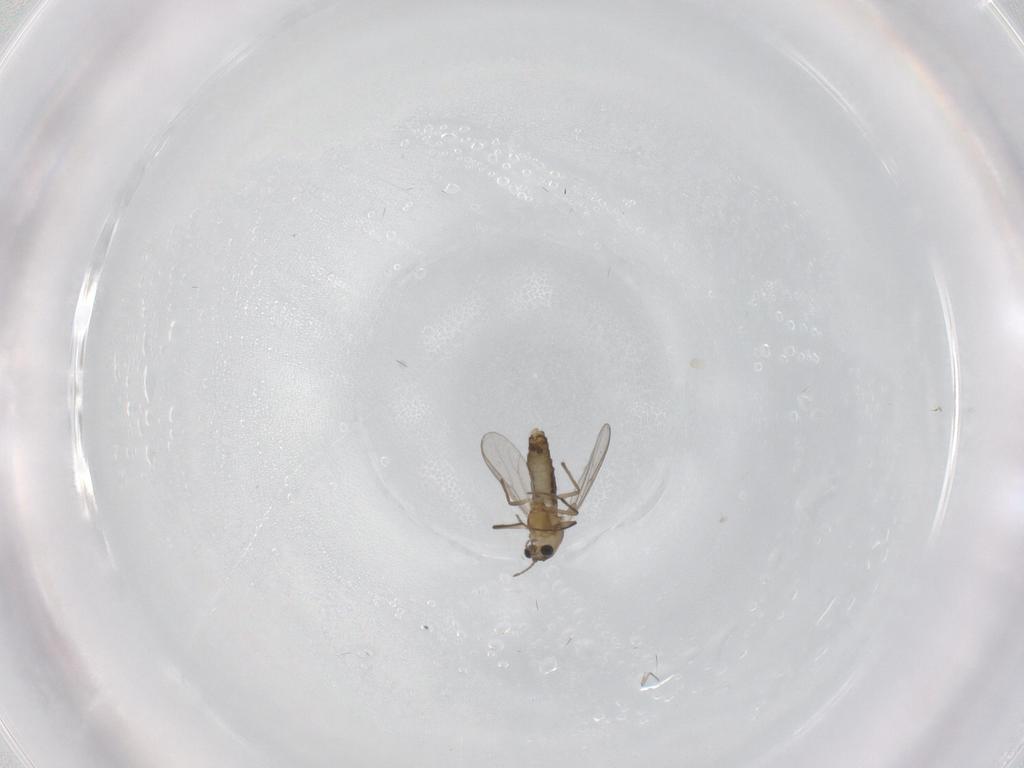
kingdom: Animalia
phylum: Arthropoda
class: Insecta
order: Diptera
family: Chironomidae
